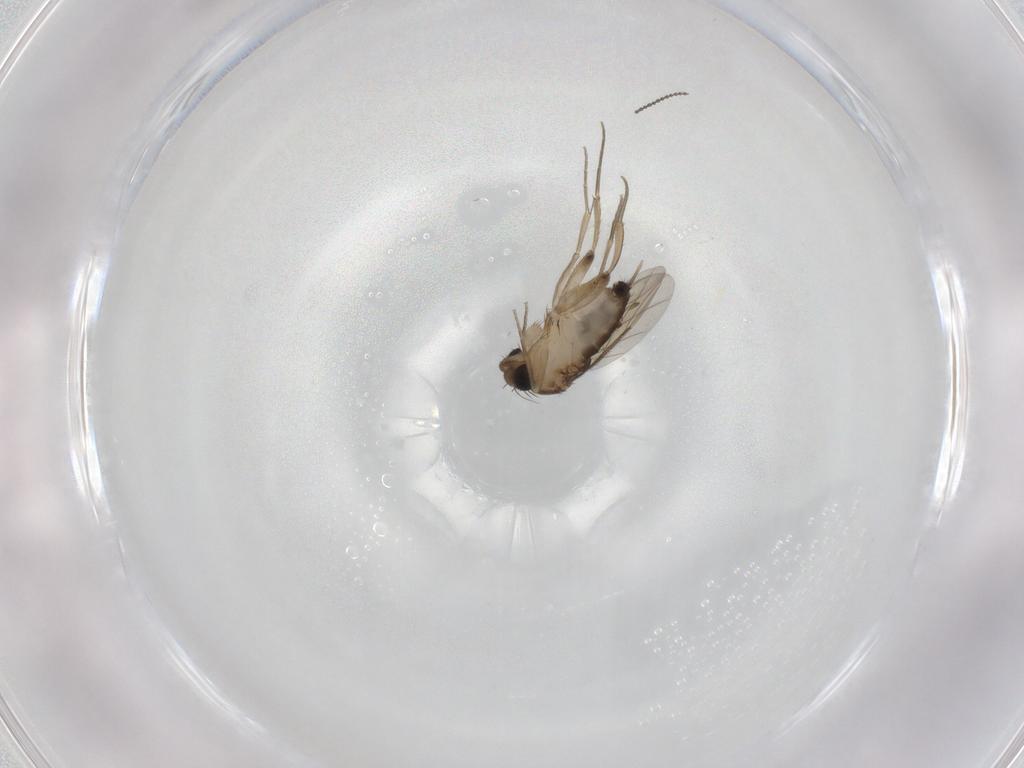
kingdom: Animalia
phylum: Arthropoda
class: Insecta
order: Diptera
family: Phoridae
